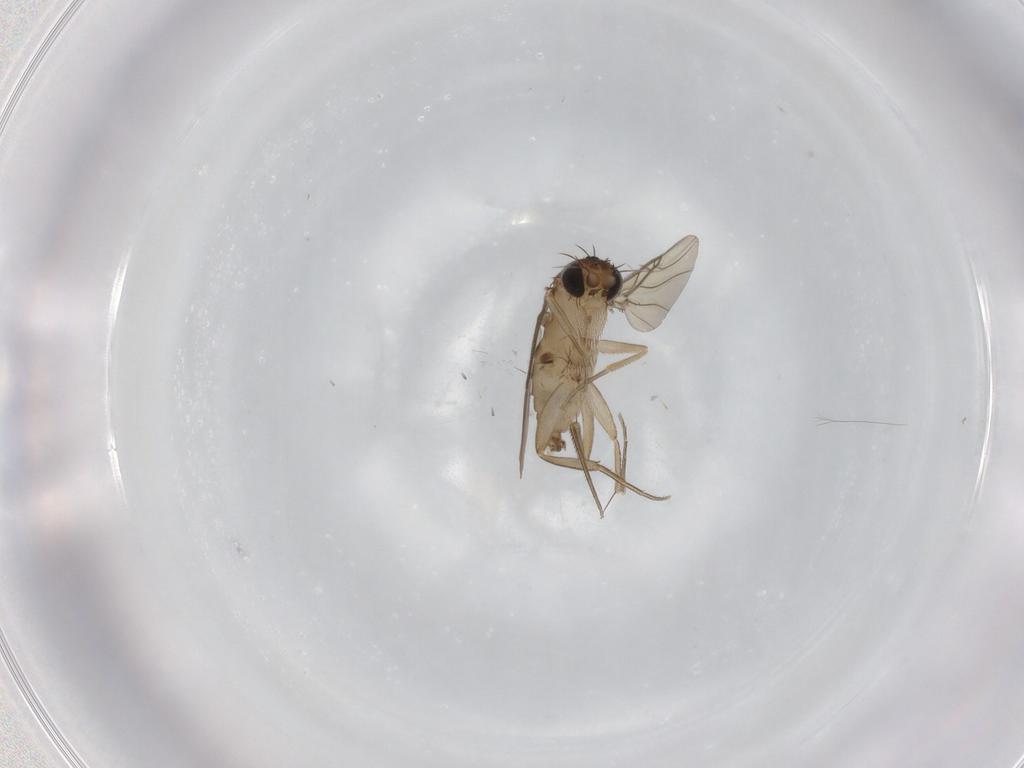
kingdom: Animalia
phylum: Arthropoda
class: Insecta
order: Diptera
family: Phoridae
